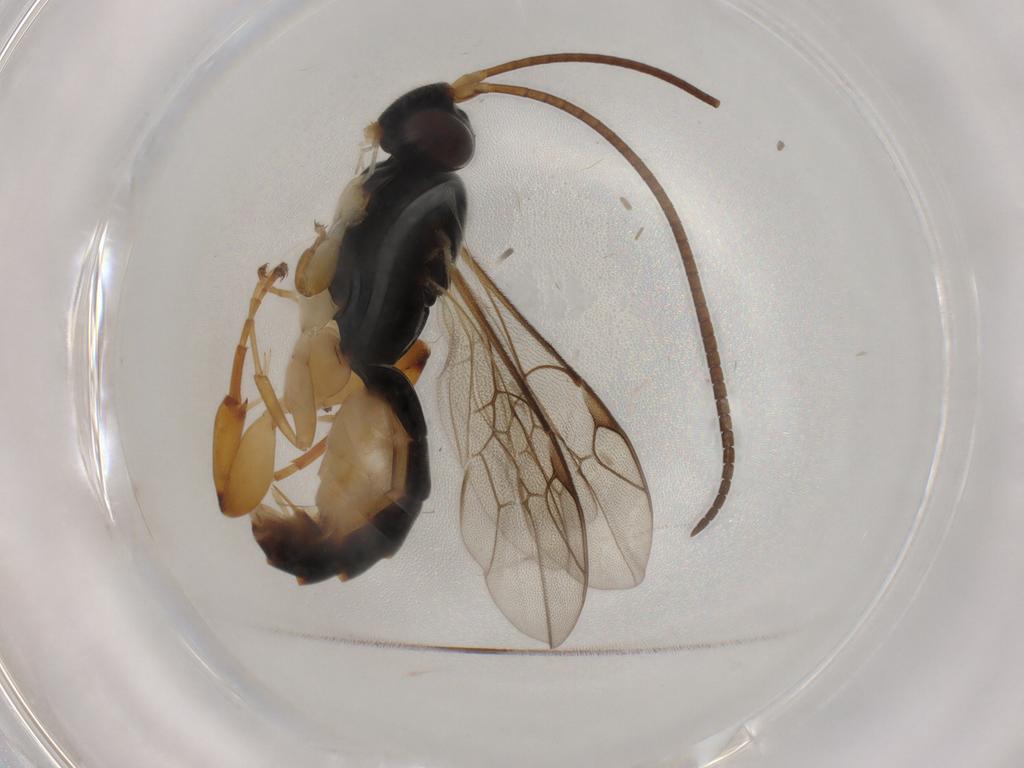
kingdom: Animalia
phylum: Arthropoda
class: Insecta
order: Hymenoptera
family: Ichneumonidae
